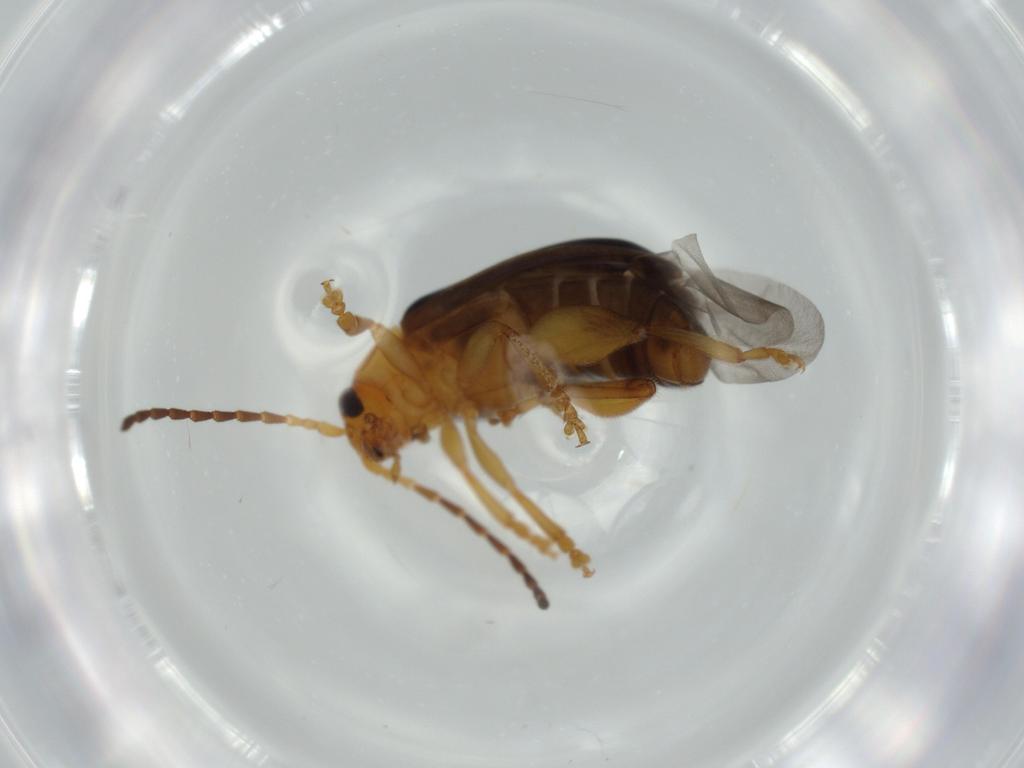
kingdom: Animalia
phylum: Arthropoda
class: Insecta
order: Coleoptera
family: Chrysomelidae
